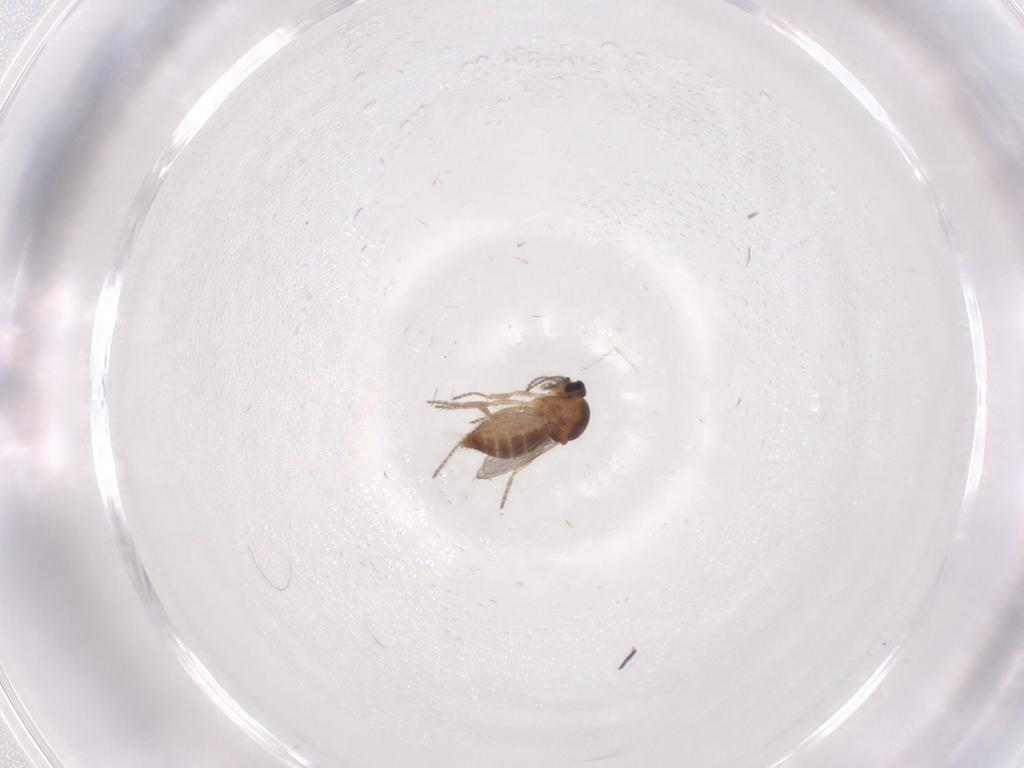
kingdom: Animalia
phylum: Arthropoda
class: Insecta
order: Diptera
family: Ceratopogonidae
